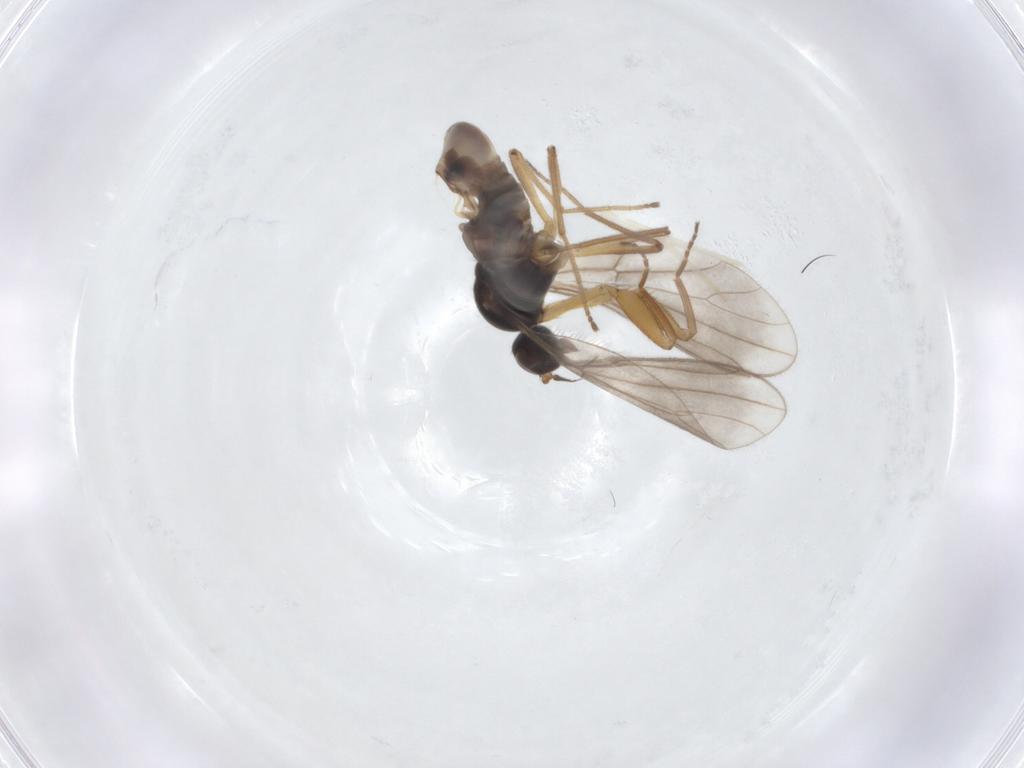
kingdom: Animalia
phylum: Arthropoda
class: Insecta
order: Diptera
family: Empididae
